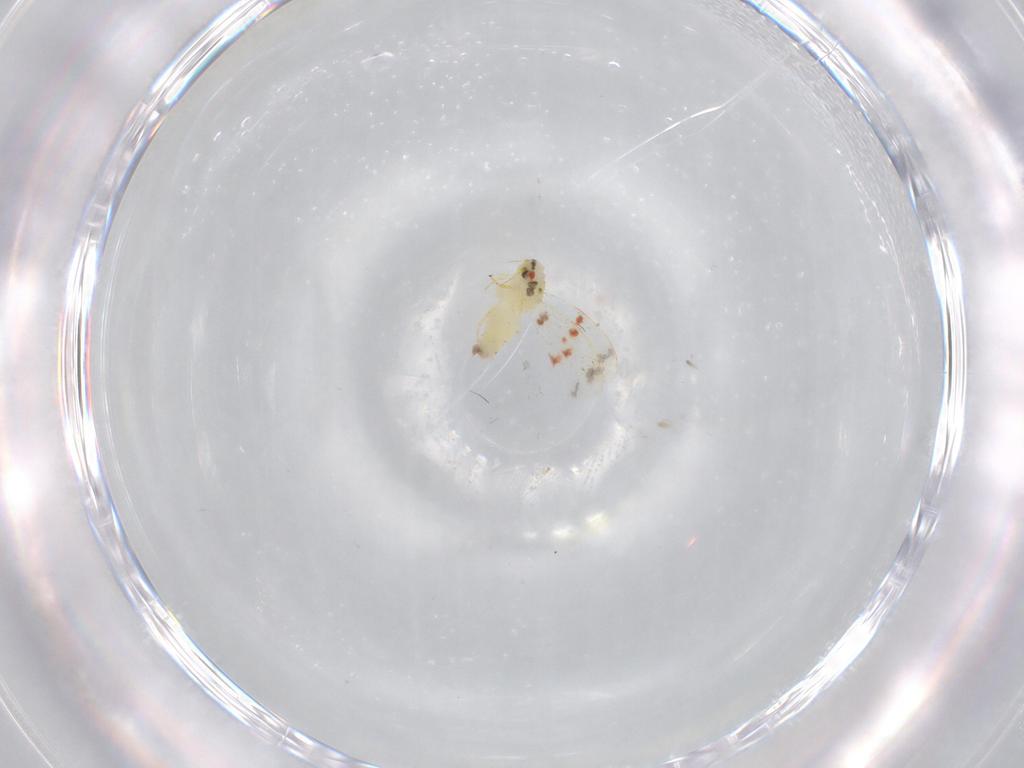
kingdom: Animalia
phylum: Arthropoda
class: Insecta
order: Hemiptera
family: Aleyrodidae
